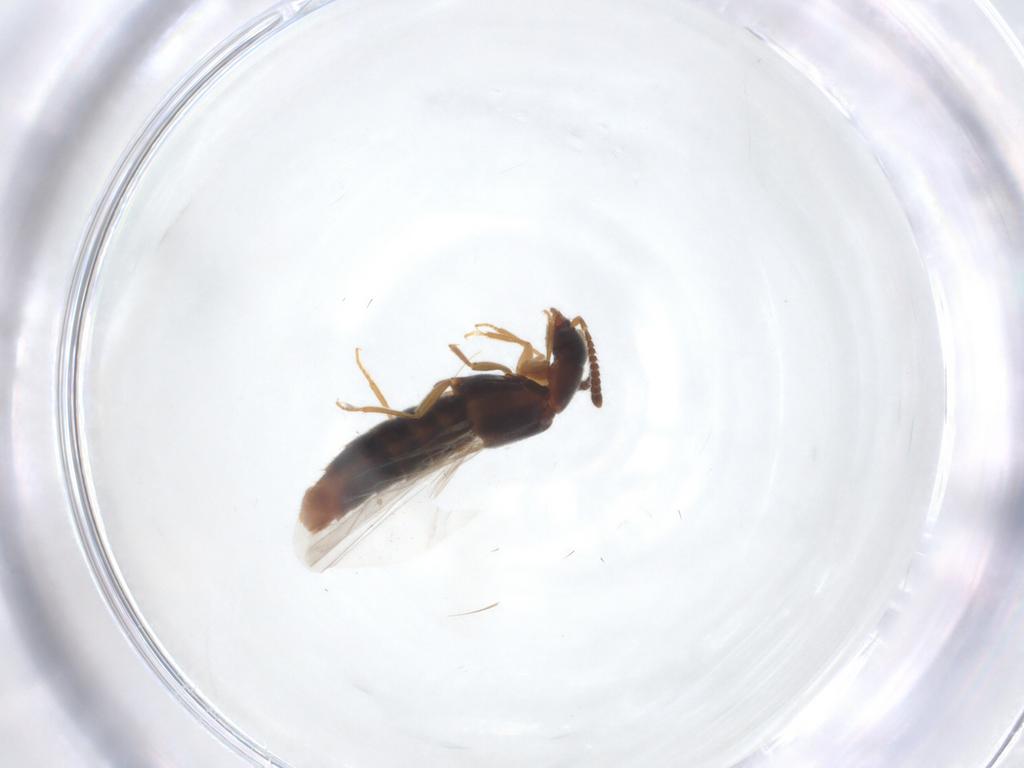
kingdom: Animalia
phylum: Arthropoda
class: Insecta
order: Coleoptera
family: Staphylinidae
